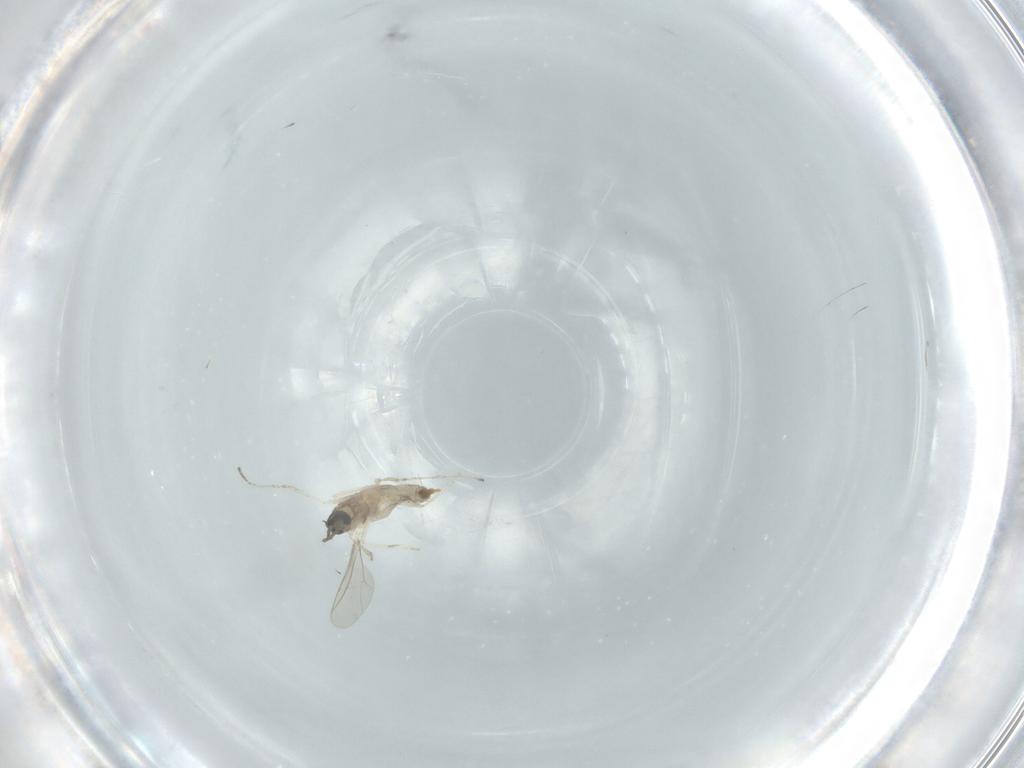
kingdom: Animalia
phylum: Arthropoda
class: Insecta
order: Diptera
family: Cecidomyiidae
